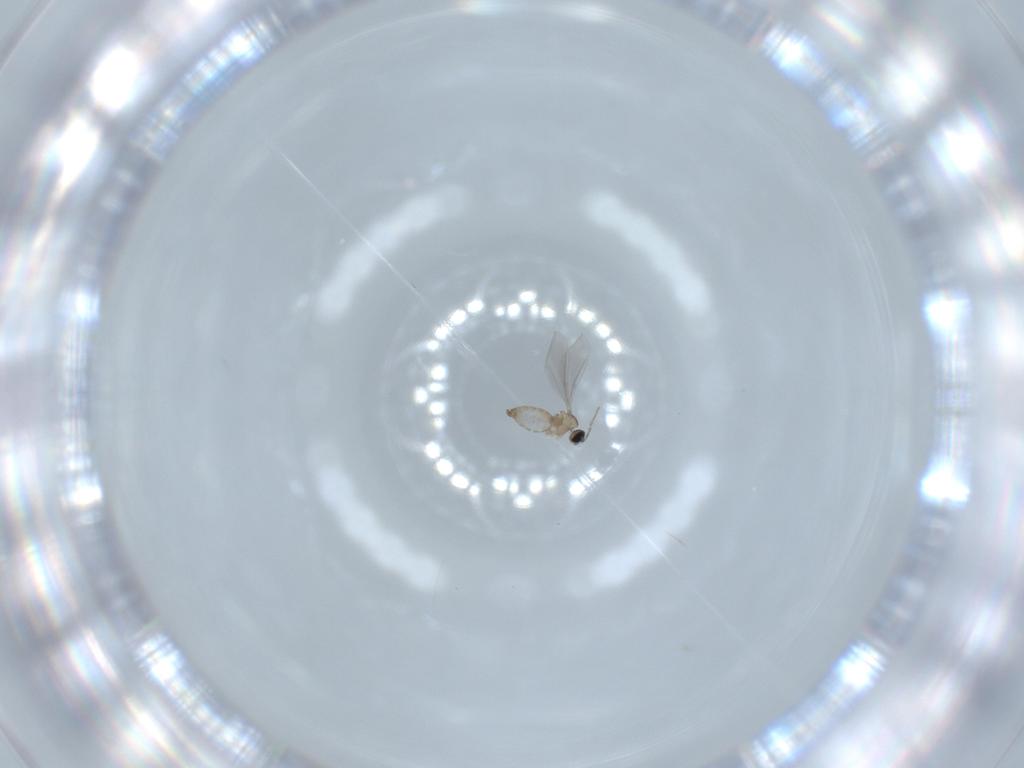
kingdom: Animalia
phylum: Arthropoda
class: Insecta
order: Diptera
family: Cecidomyiidae
